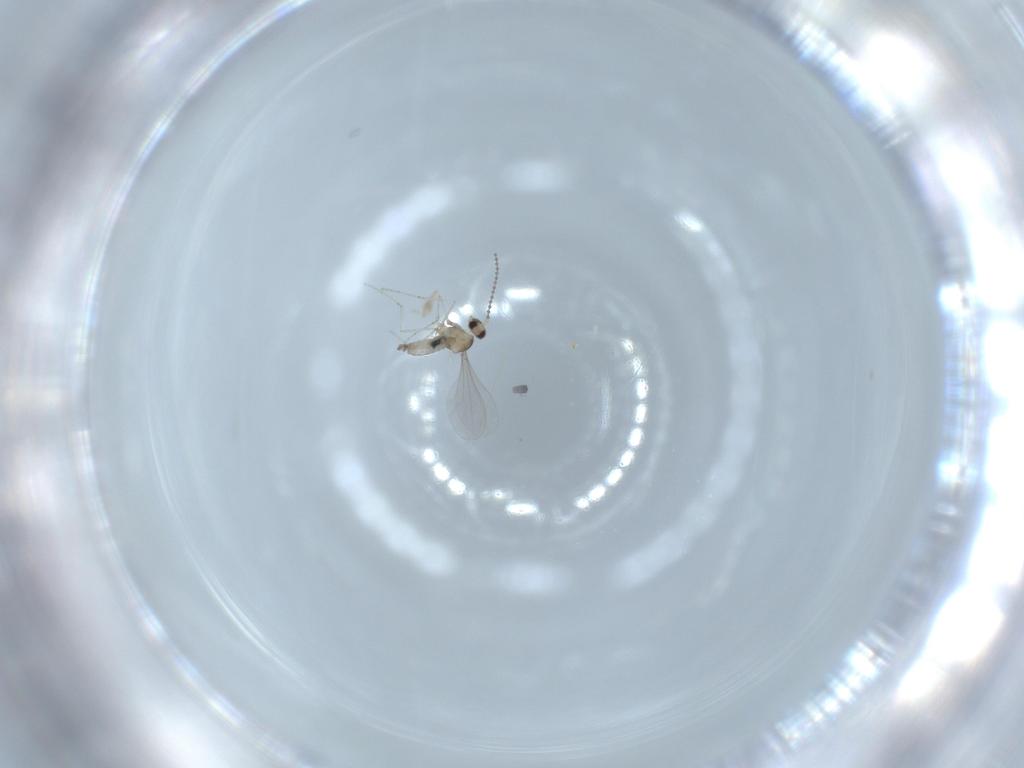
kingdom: Animalia
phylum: Arthropoda
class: Insecta
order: Diptera
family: Cecidomyiidae
